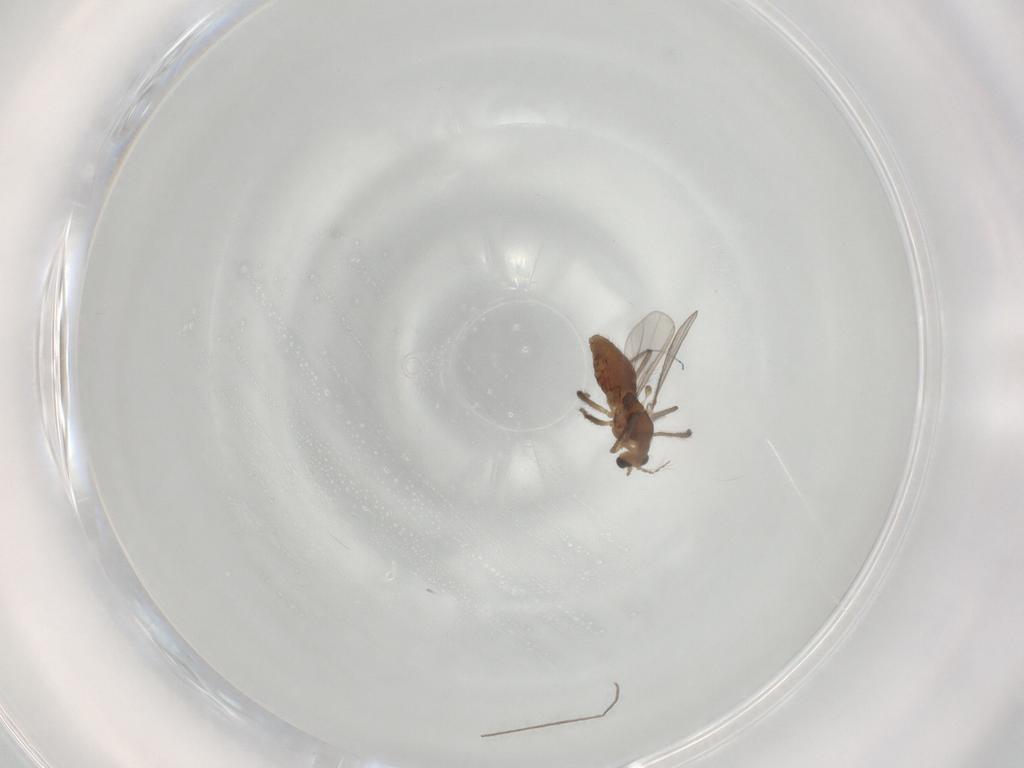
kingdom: Animalia
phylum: Arthropoda
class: Insecta
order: Diptera
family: Chironomidae
